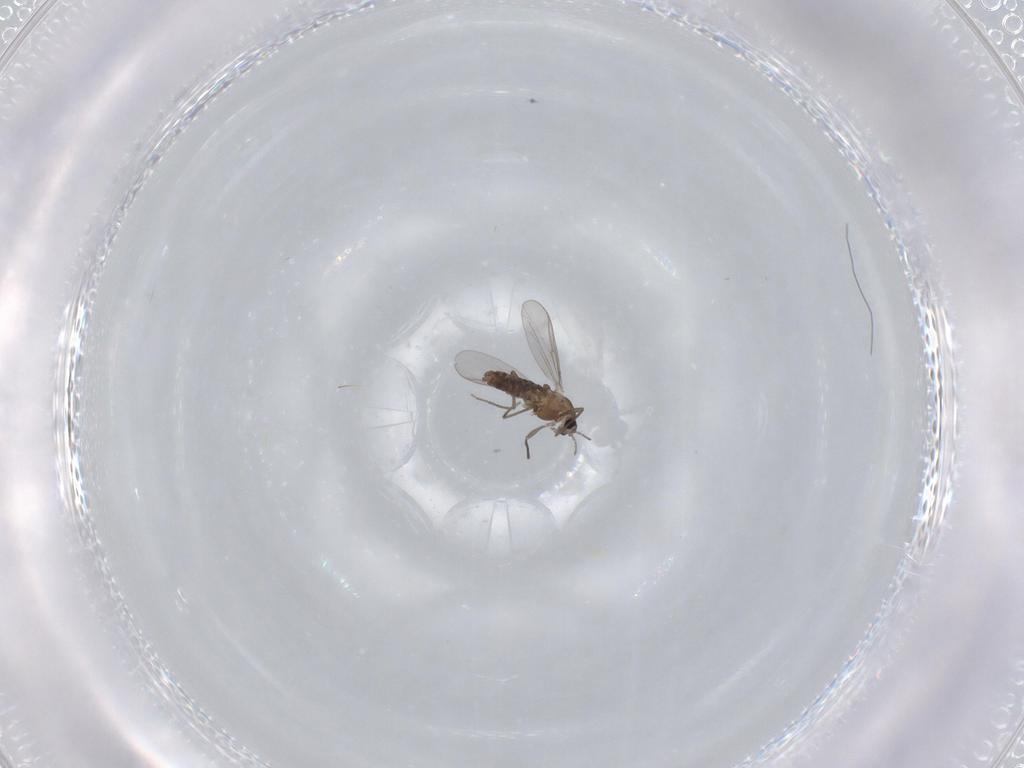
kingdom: Animalia
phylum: Arthropoda
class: Insecta
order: Diptera
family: Chironomidae
